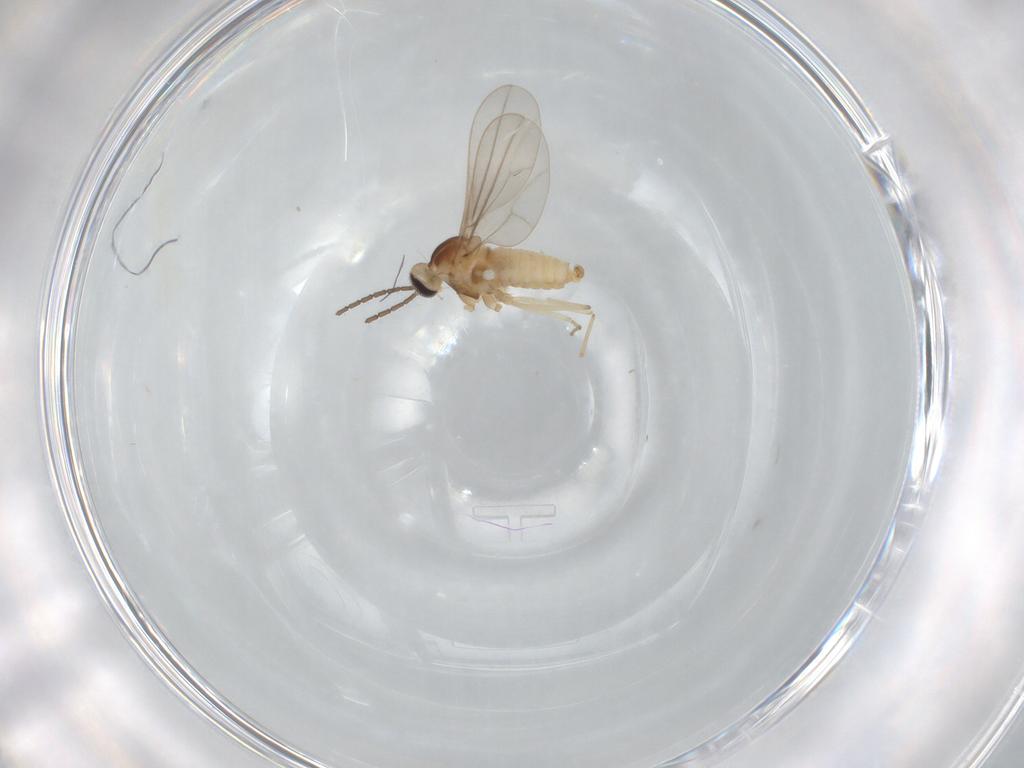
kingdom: Animalia
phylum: Arthropoda
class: Insecta
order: Diptera
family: Cecidomyiidae
